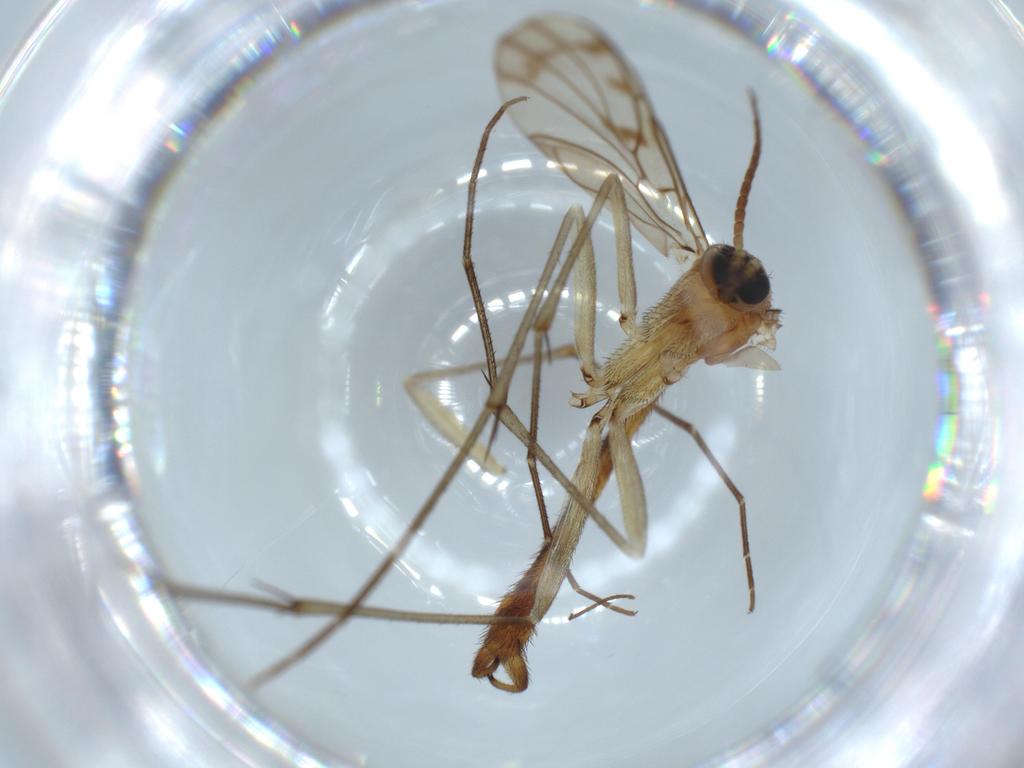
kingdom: Animalia
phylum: Arthropoda
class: Insecta
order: Diptera
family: Keroplatidae
